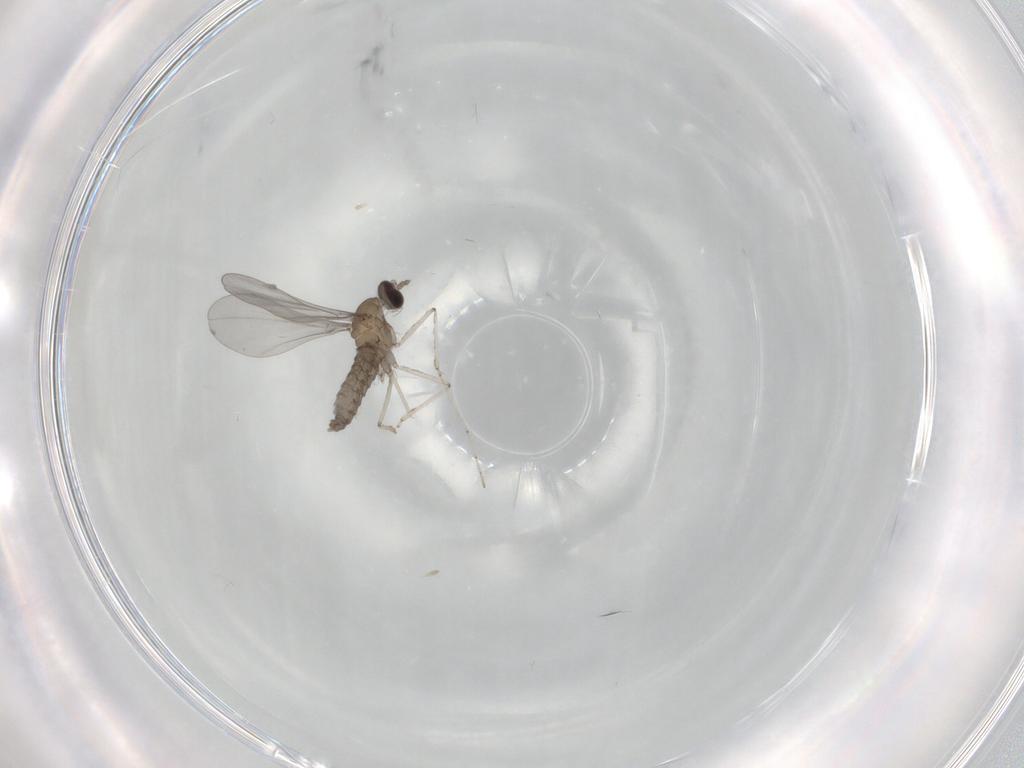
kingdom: Animalia
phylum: Arthropoda
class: Insecta
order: Diptera
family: Cecidomyiidae
